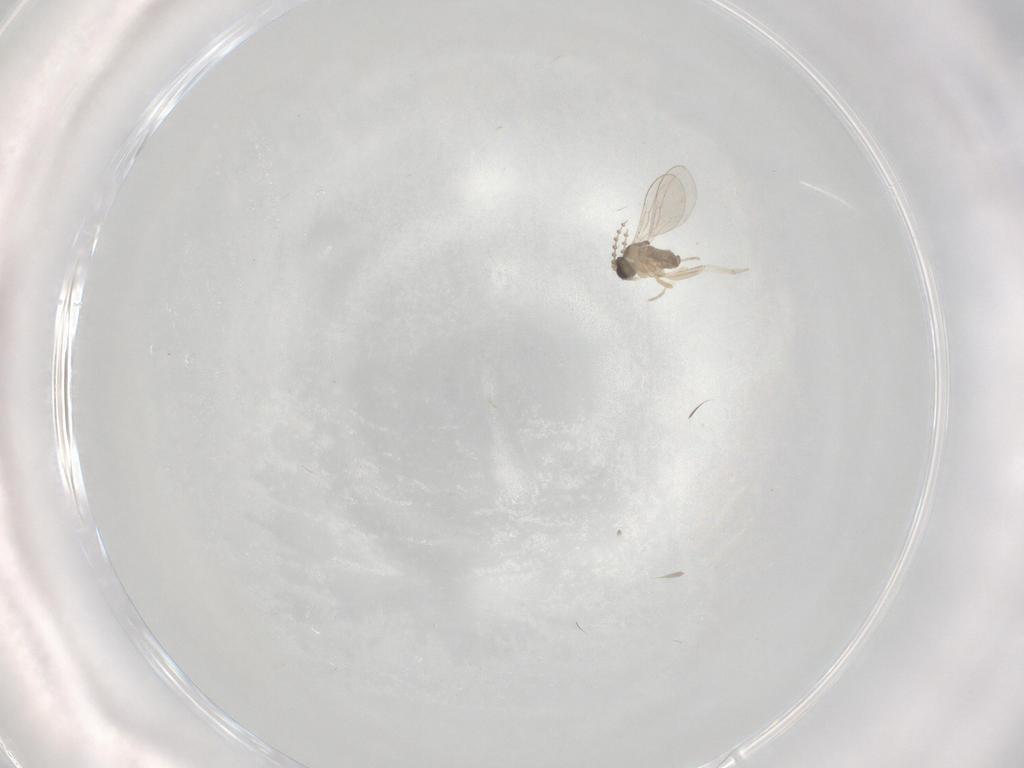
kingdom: Animalia
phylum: Arthropoda
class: Insecta
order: Diptera
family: Cecidomyiidae
